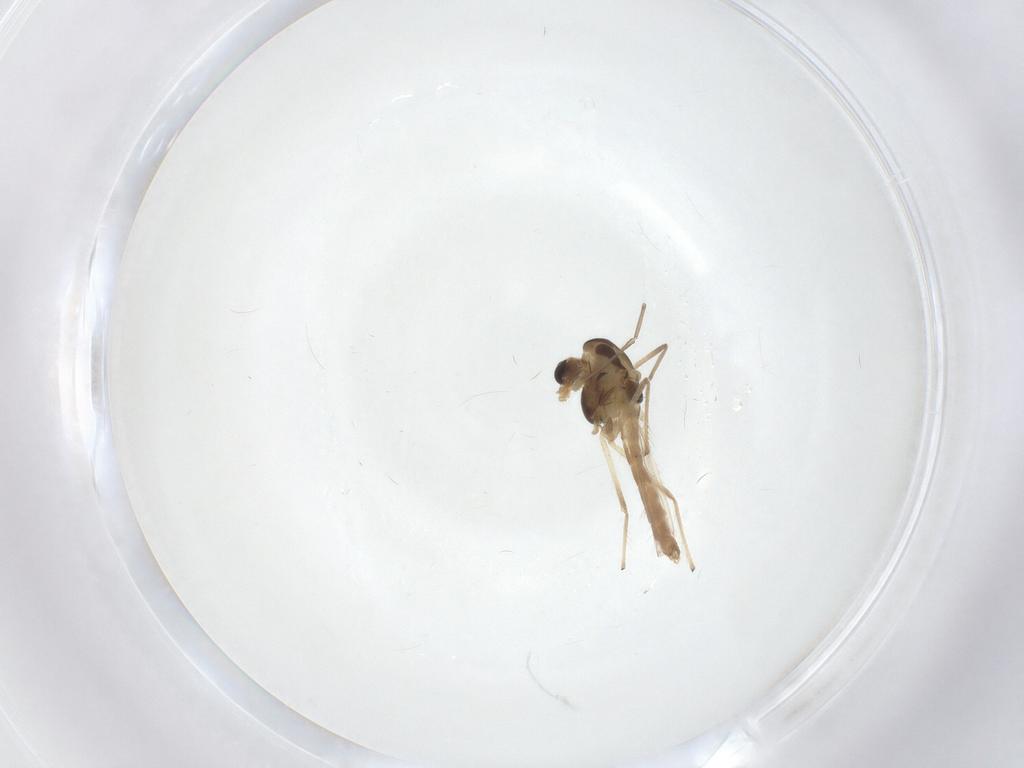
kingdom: Animalia
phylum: Arthropoda
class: Insecta
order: Diptera
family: Chironomidae
